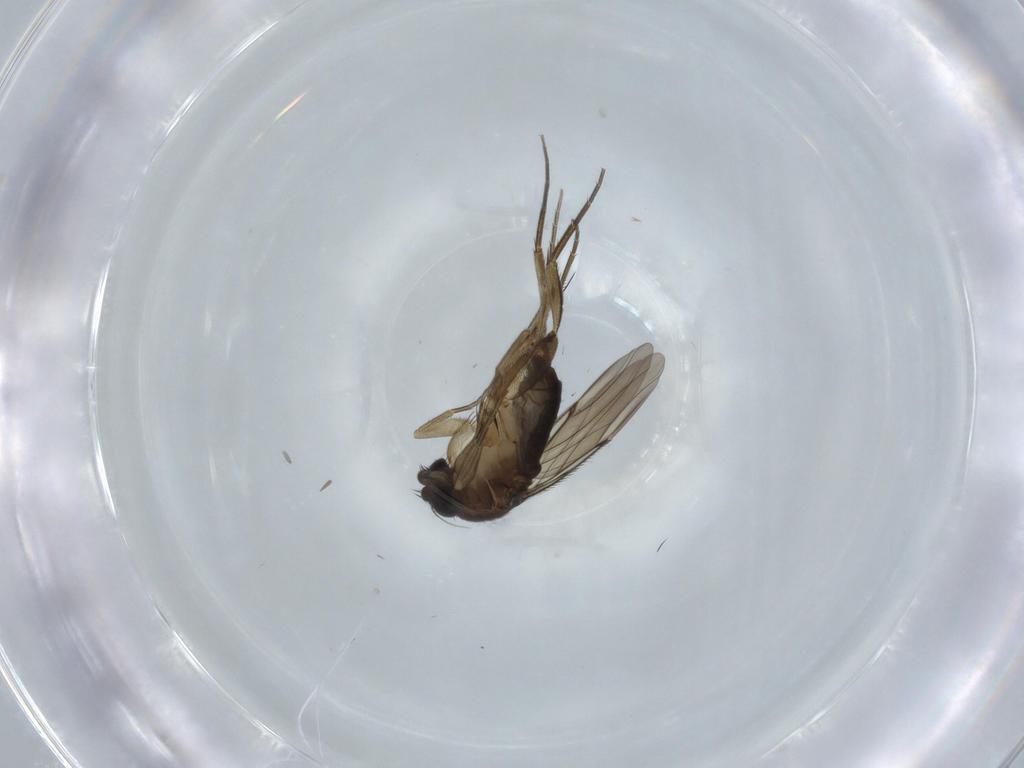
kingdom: Animalia
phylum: Arthropoda
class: Insecta
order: Diptera
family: Phoridae
